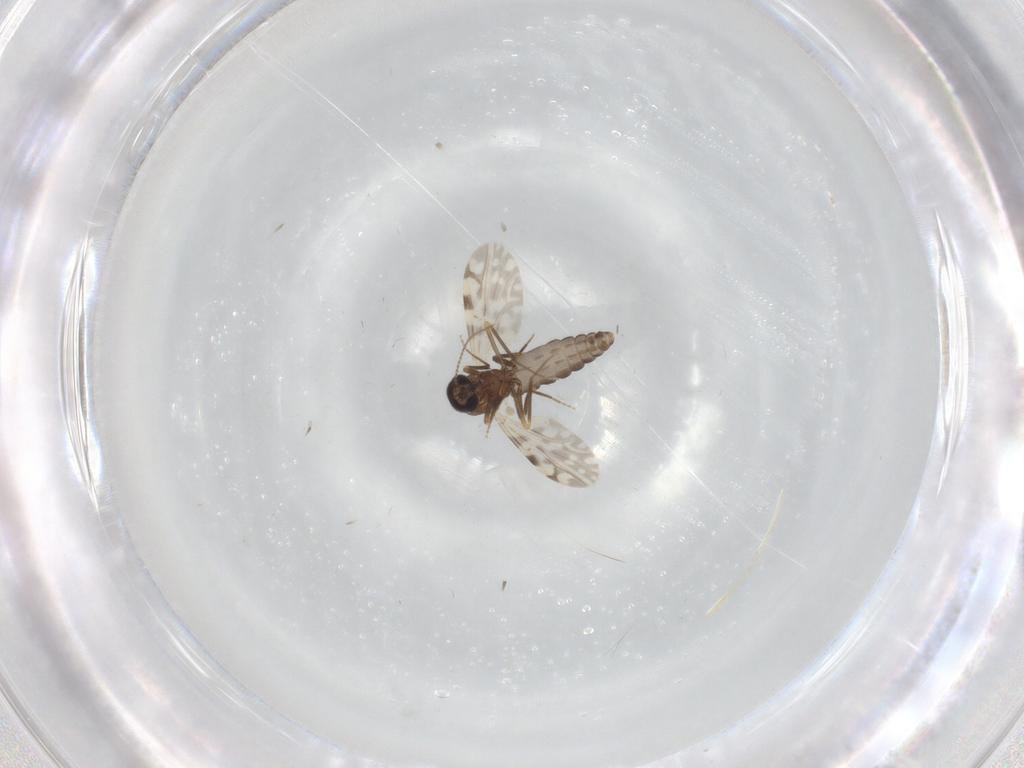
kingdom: Animalia
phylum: Arthropoda
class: Insecta
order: Diptera
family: Ceratopogonidae
